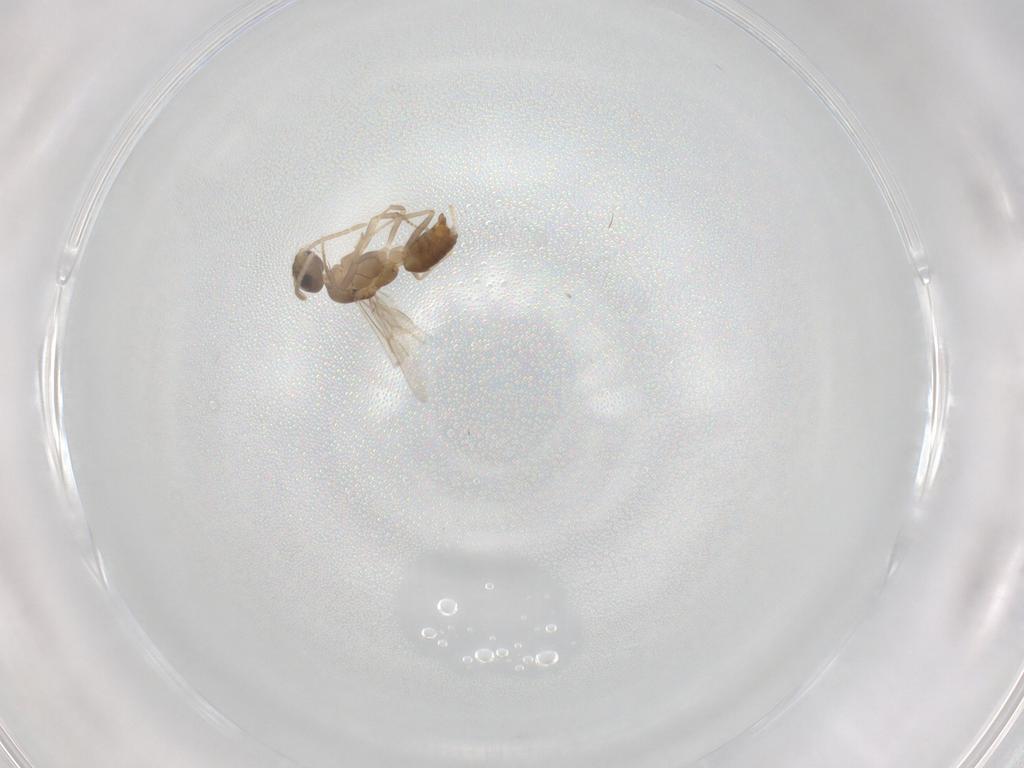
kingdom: Animalia
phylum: Arthropoda
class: Insecta
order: Hymenoptera
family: Formicidae
